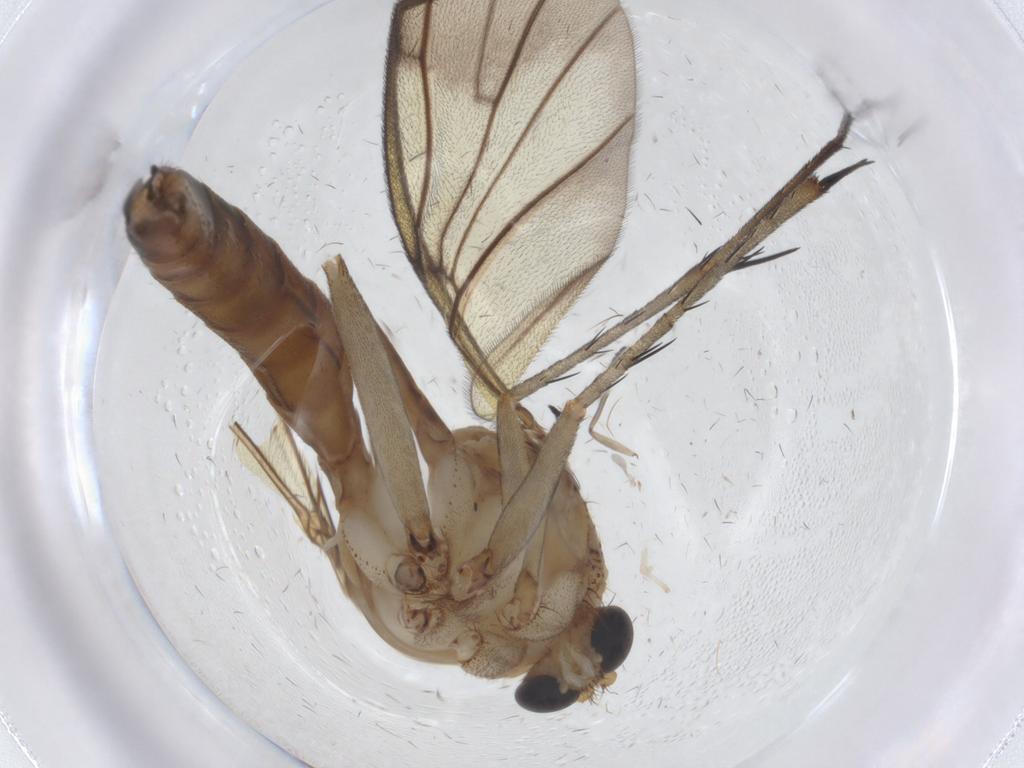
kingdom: Animalia
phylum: Arthropoda
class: Insecta
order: Diptera
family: Sciaridae
